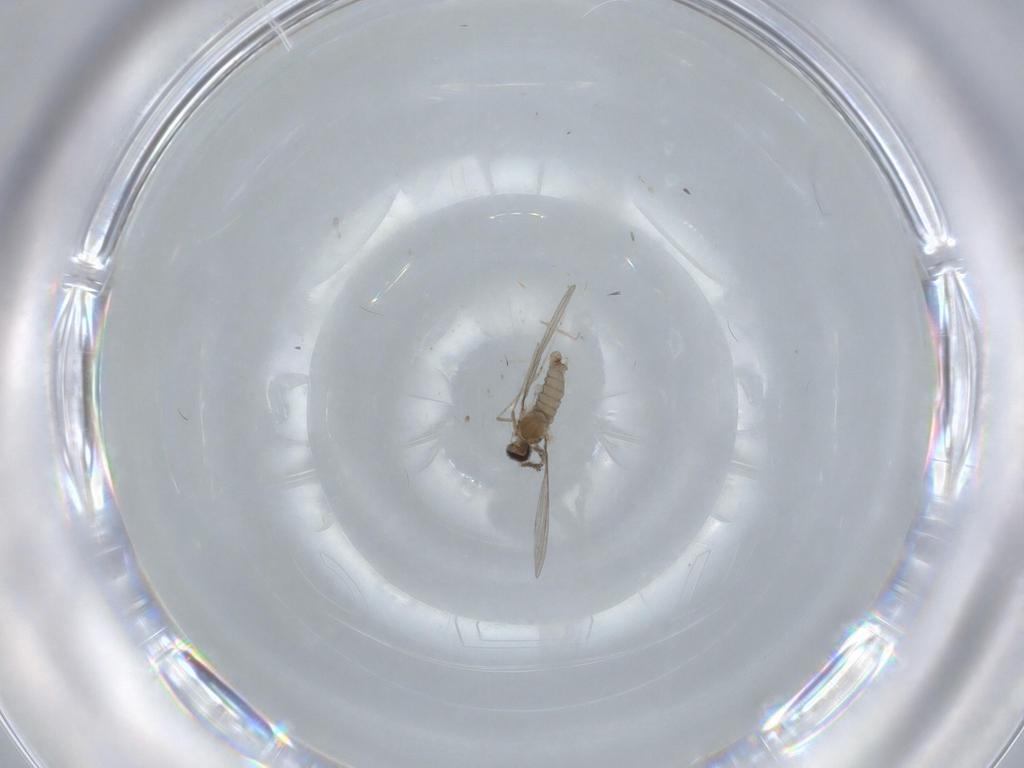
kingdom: Animalia
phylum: Arthropoda
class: Insecta
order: Diptera
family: Cecidomyiidae
